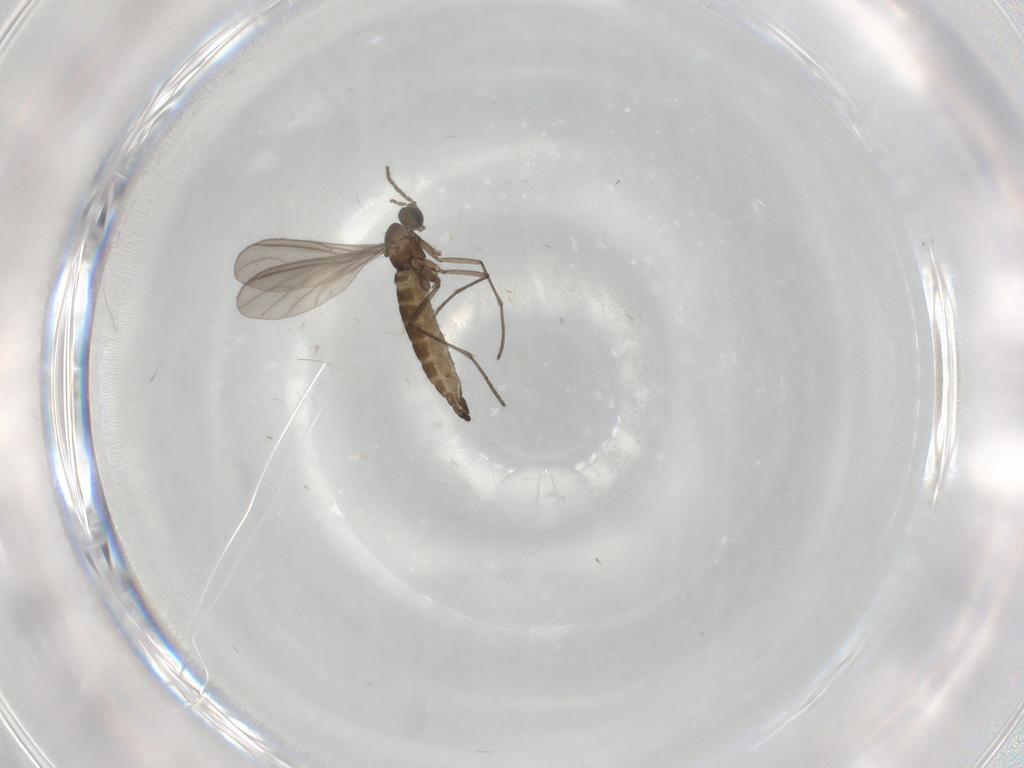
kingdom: Animalia
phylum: Arthropoda
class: Insecta
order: Diptera
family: Sciaridae
